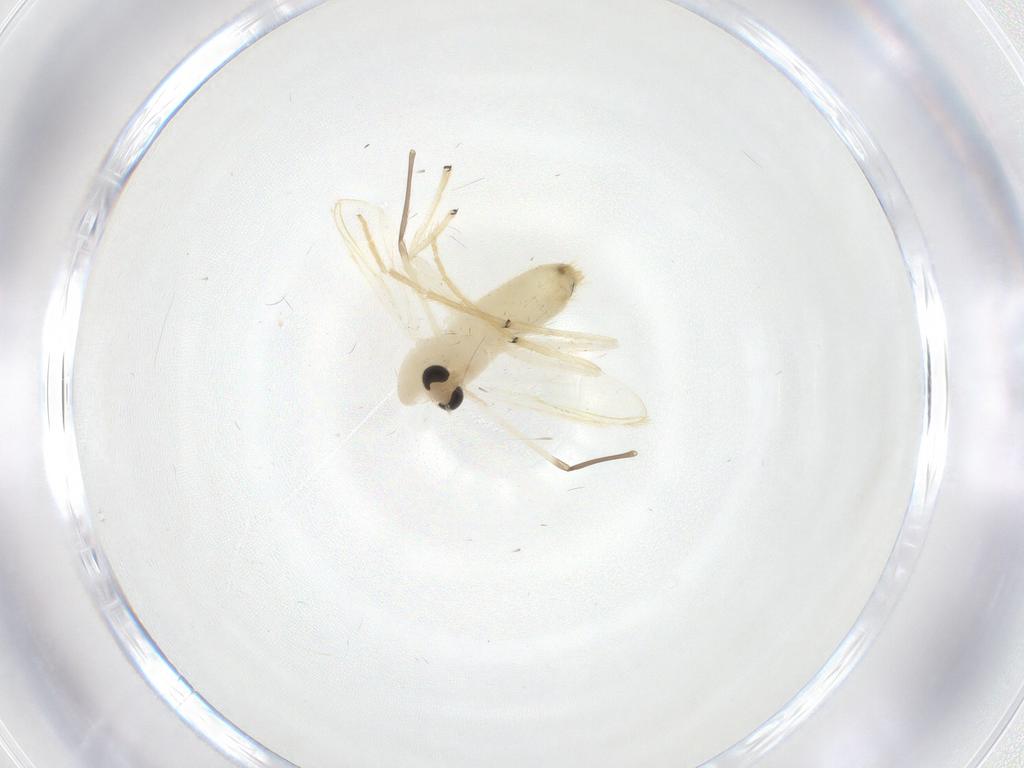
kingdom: Animalia
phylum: Arthropoda
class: Insecta
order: Diptera
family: Chironomidae
